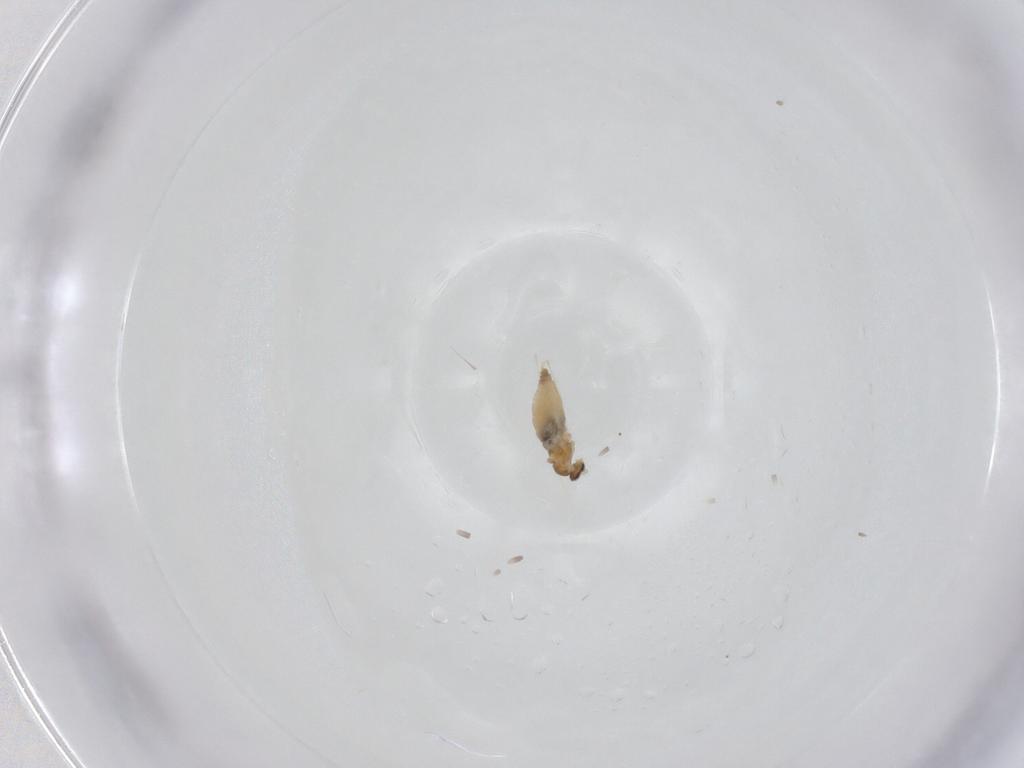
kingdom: Animalia
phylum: Arthropoda
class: Insecta
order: Diptera
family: Cecidomyiidae
